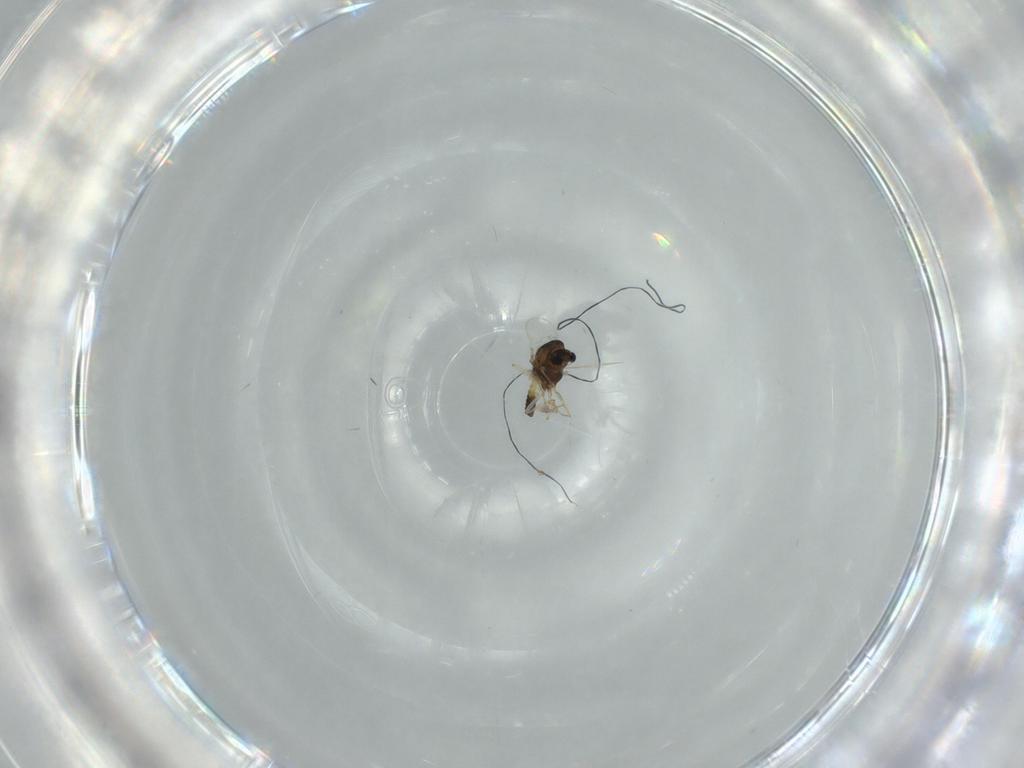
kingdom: Animalia
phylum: Arthropoda
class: Insecta
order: Diptera
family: Chironomidae
